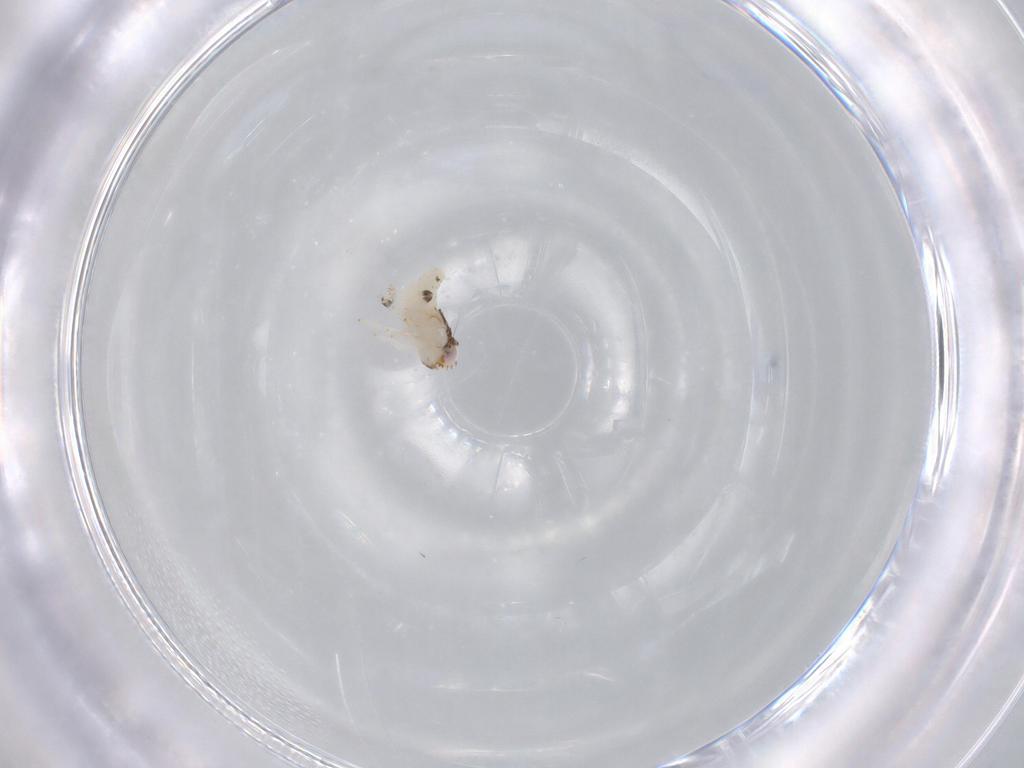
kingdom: Animalia
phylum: Arthropoda
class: Insecta
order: Hemiptera
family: Nogodinidae
